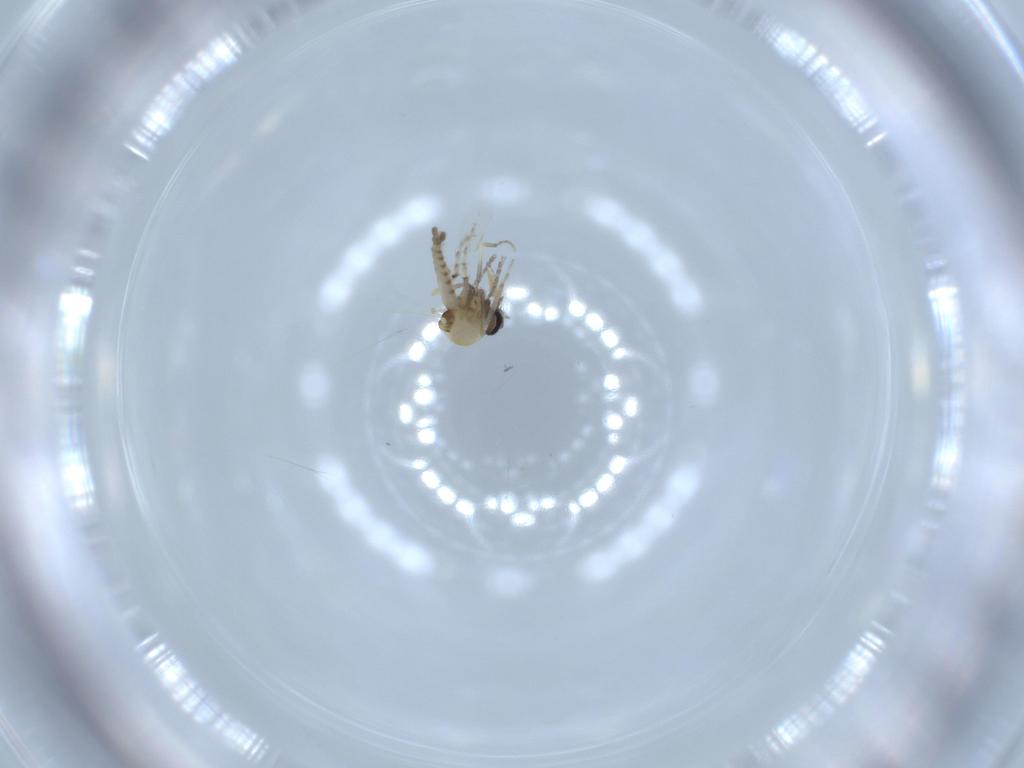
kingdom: Animalia
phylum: Arthropoda
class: Insecta
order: Diptera
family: Ceratopogonidae
